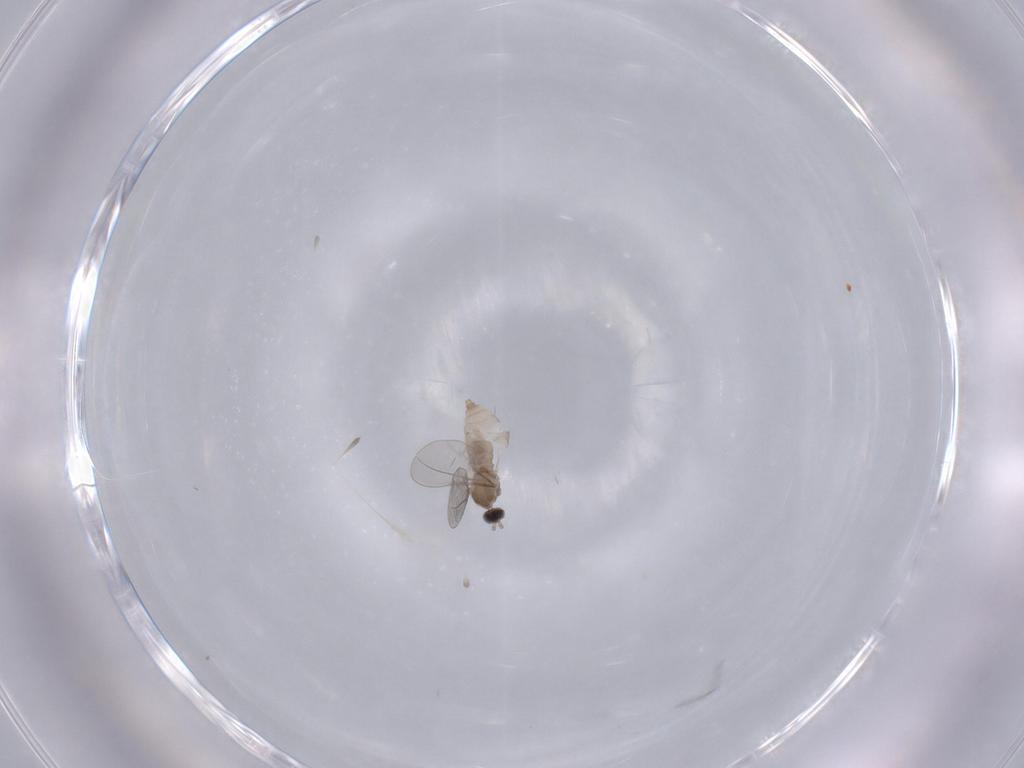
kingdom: Animalia
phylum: Arthropoda
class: Insecta
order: Diptera
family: Cecidomyiidae
